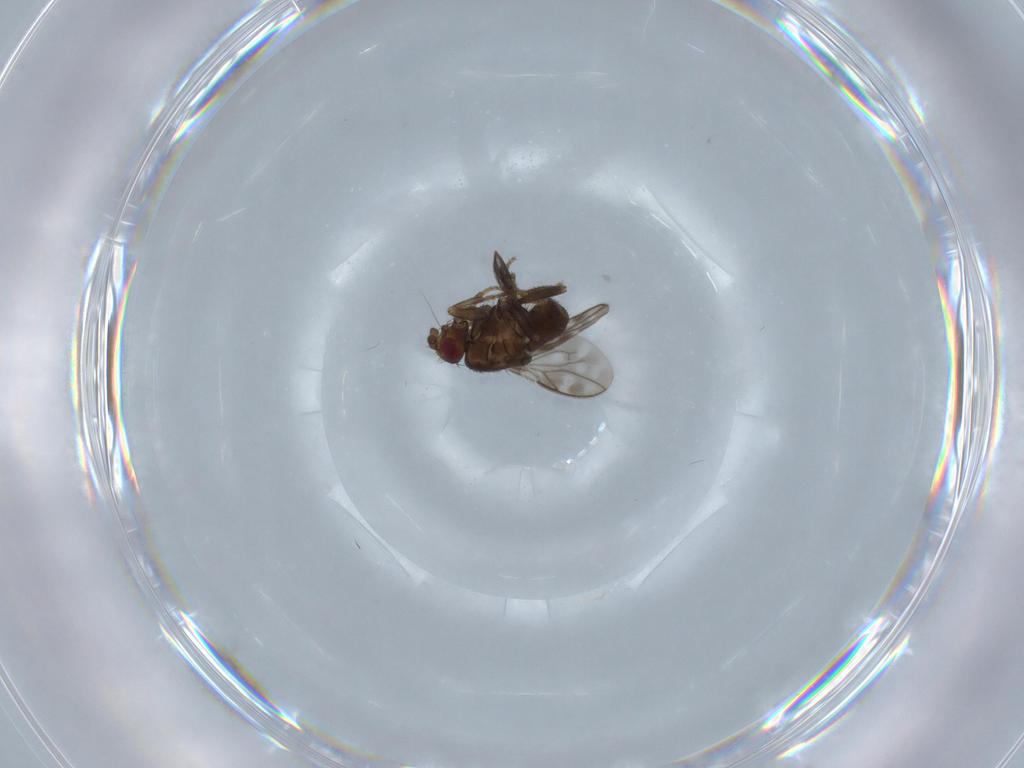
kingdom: Animalia
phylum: Arthropoda
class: Insecta
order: Diptera
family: Sphaeroceridae
